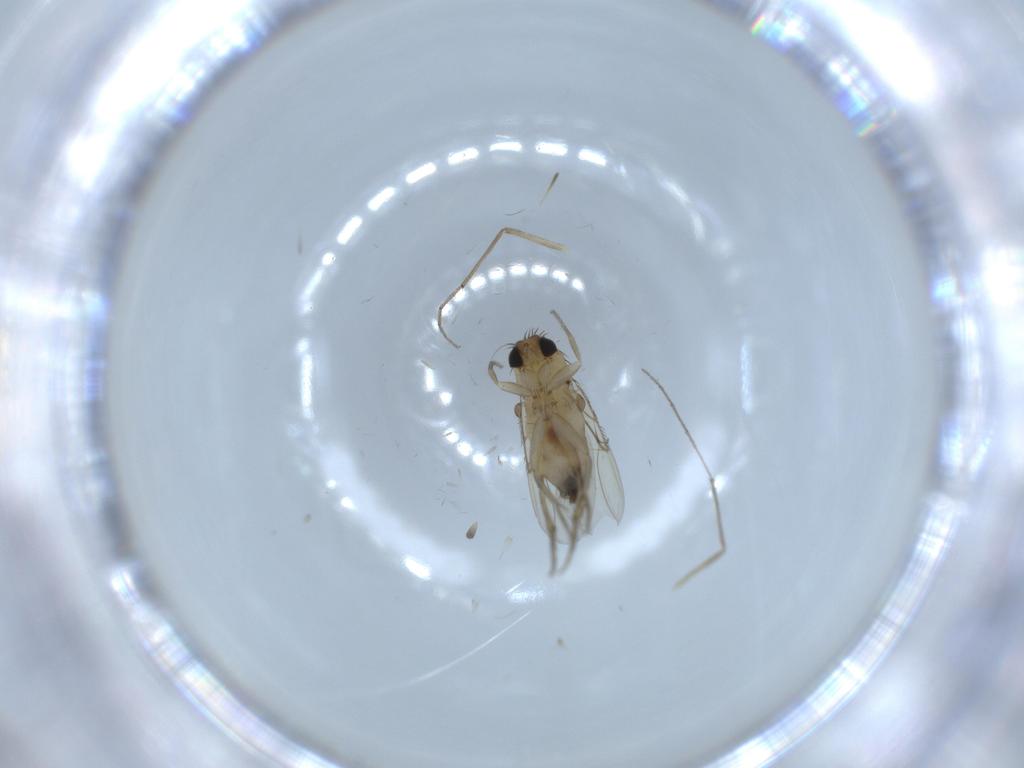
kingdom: Animalia
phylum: Arthropoda
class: Insecta
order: Diptera
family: Phoridae
